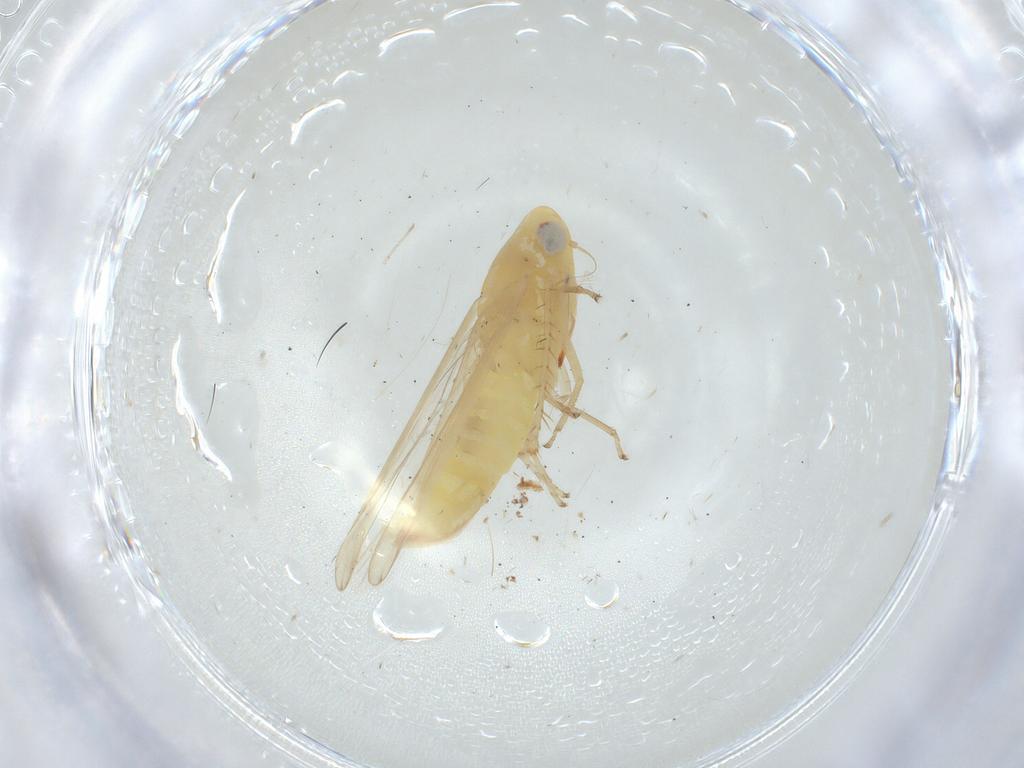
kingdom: Animalia
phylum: Arthropoda
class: Insecta
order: Hemiptera
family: Cicadellidae
